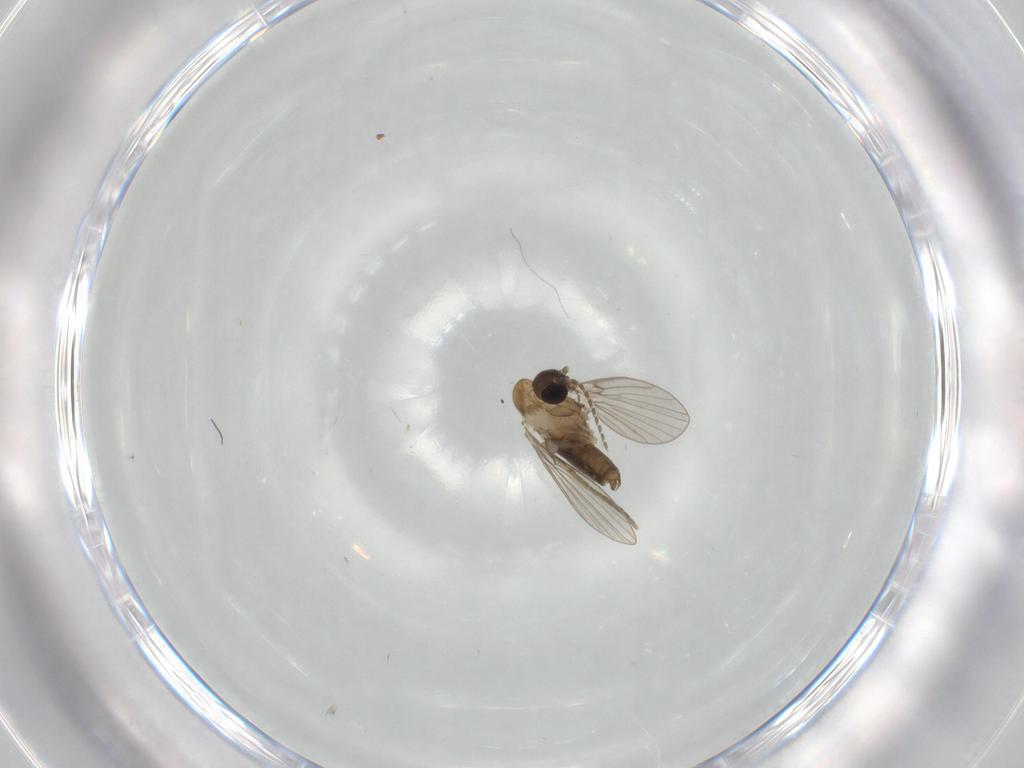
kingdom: Animalia
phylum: Arthropoda
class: Insecta
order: Diptera
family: Psychodidae
